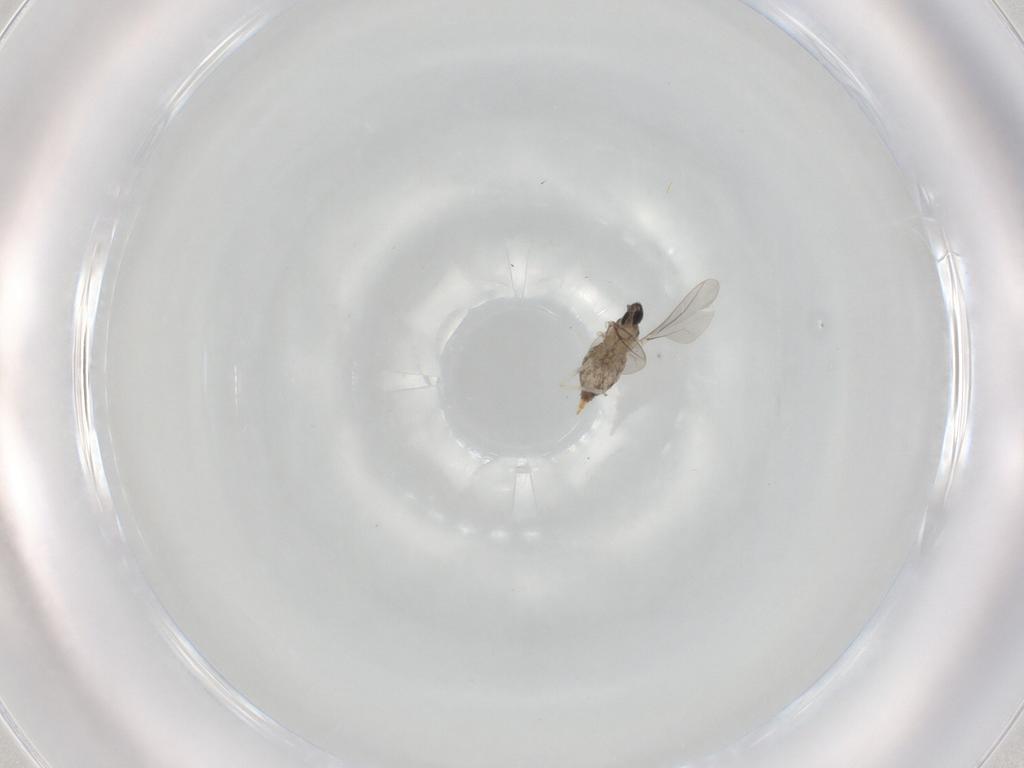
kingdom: Animalia
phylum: Arthropoda
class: Insecta
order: Diptera
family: Cecidomyiidae
